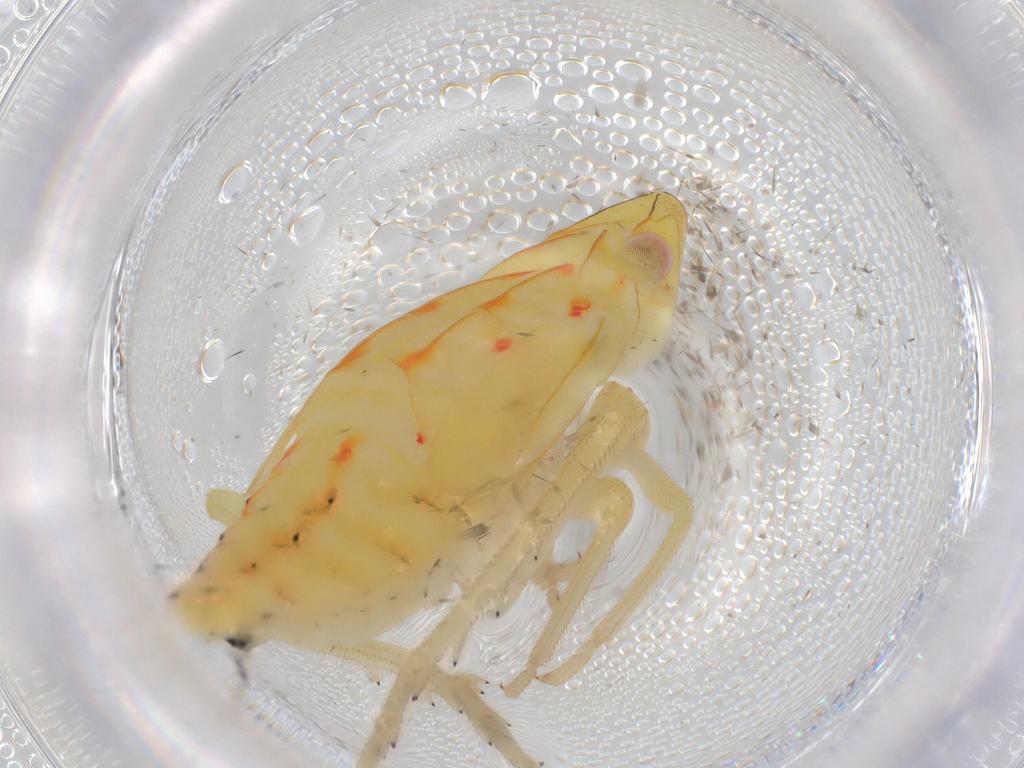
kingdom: Animalia
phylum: Arthropoda
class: Insecta
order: Hemiptera
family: Tropiduchidae
